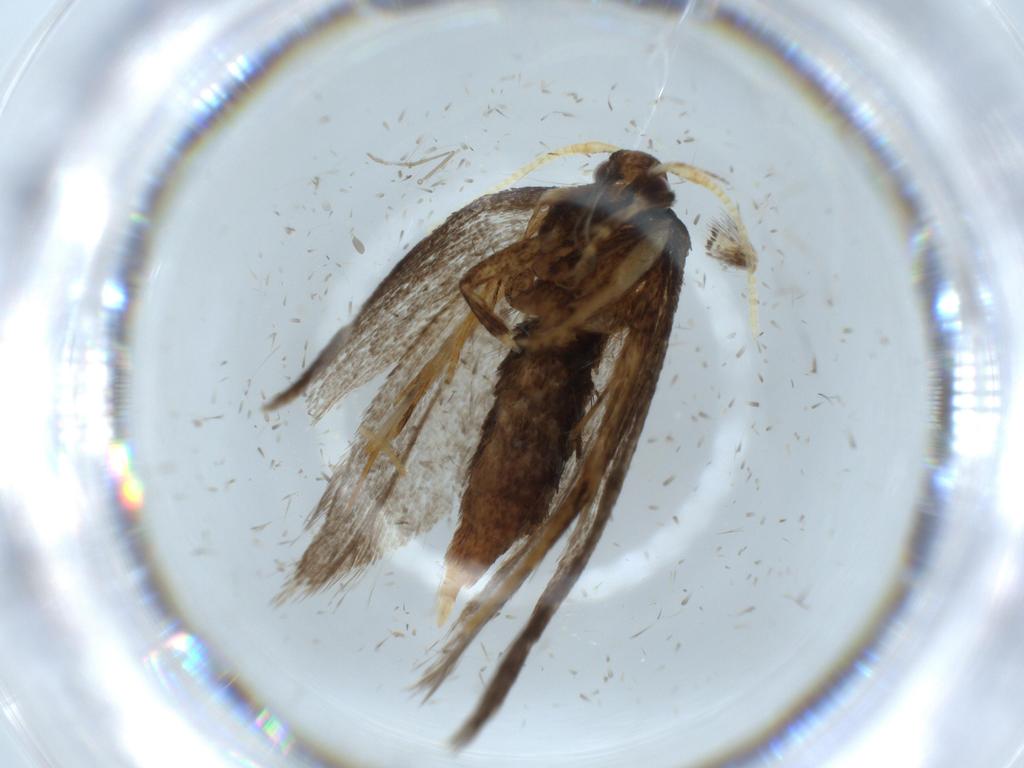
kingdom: Animalia
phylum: Arthropoda
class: Insecta
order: Lepidoptera
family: Lecithoceridae
